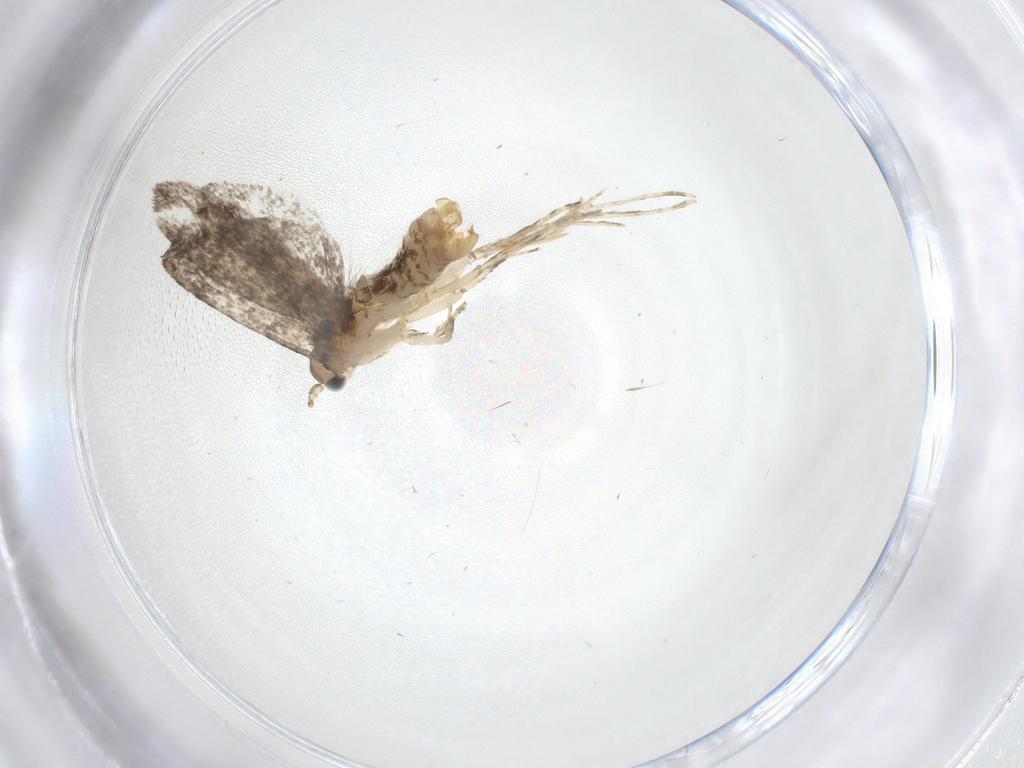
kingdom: Animalia
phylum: Arthropoda
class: Insecta
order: Lepidoptera
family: Tineidae
